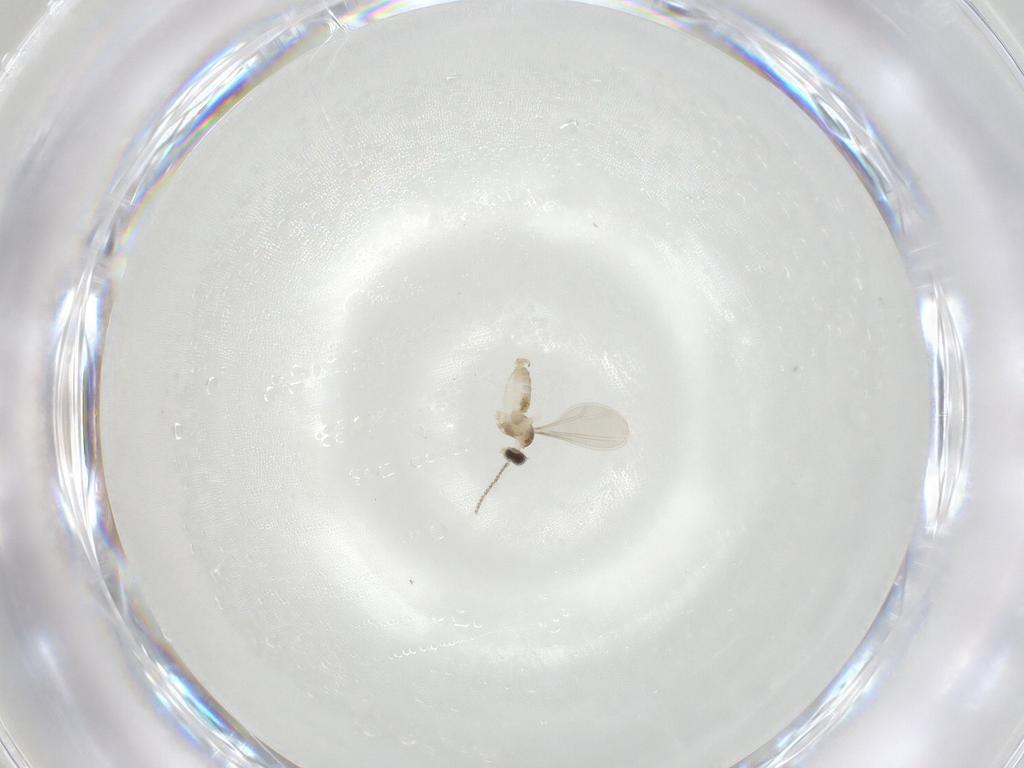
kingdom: Animalia
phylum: Arthropoda
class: Insecta
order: Diptera
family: Cecidomyiidae
